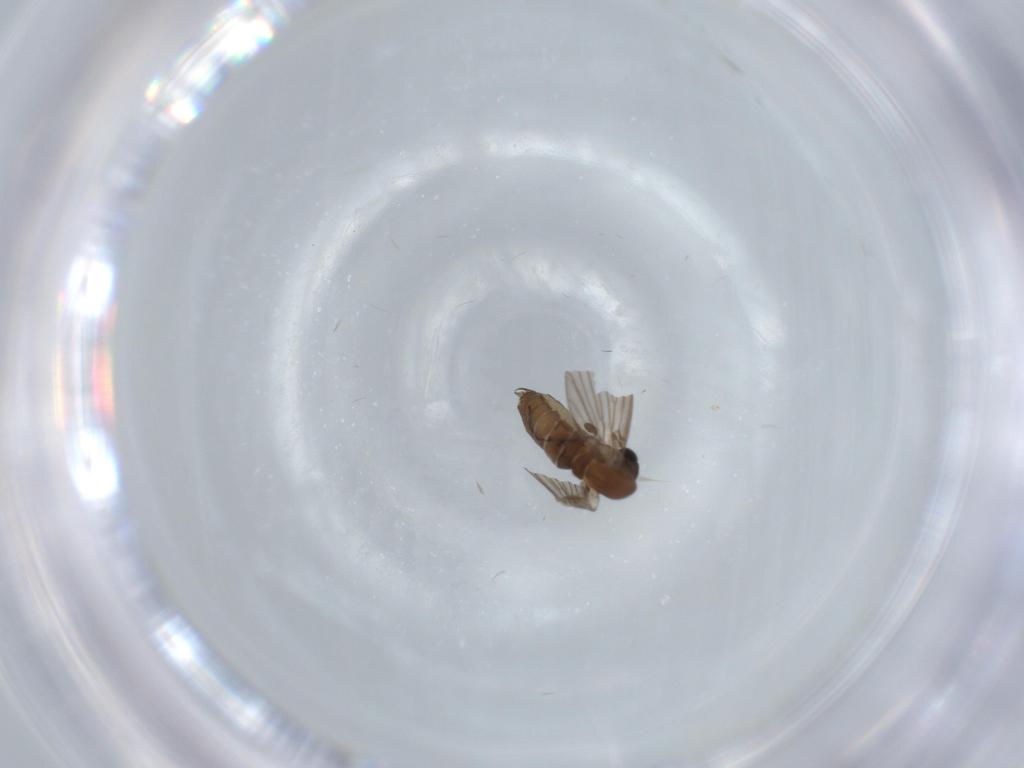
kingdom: Animalia
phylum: Arthropoda
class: Insecta
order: Diptera
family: Psychodidae
